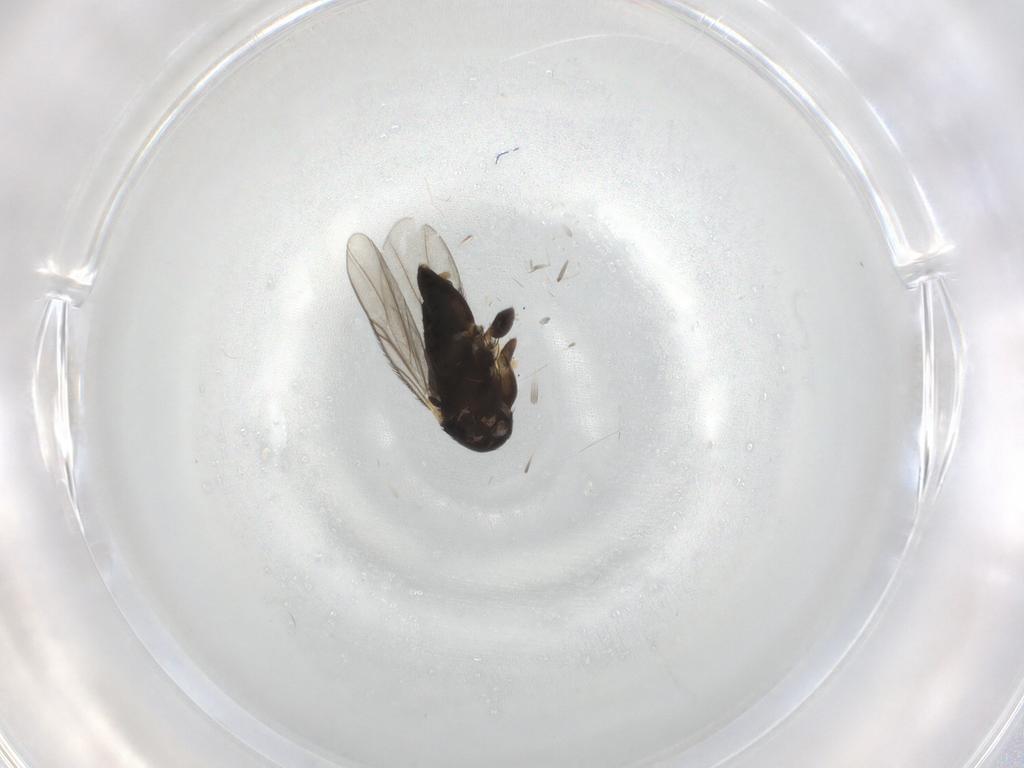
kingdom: Animalia
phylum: Arthropoda
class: Insecta
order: Diptera
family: Phoridae
